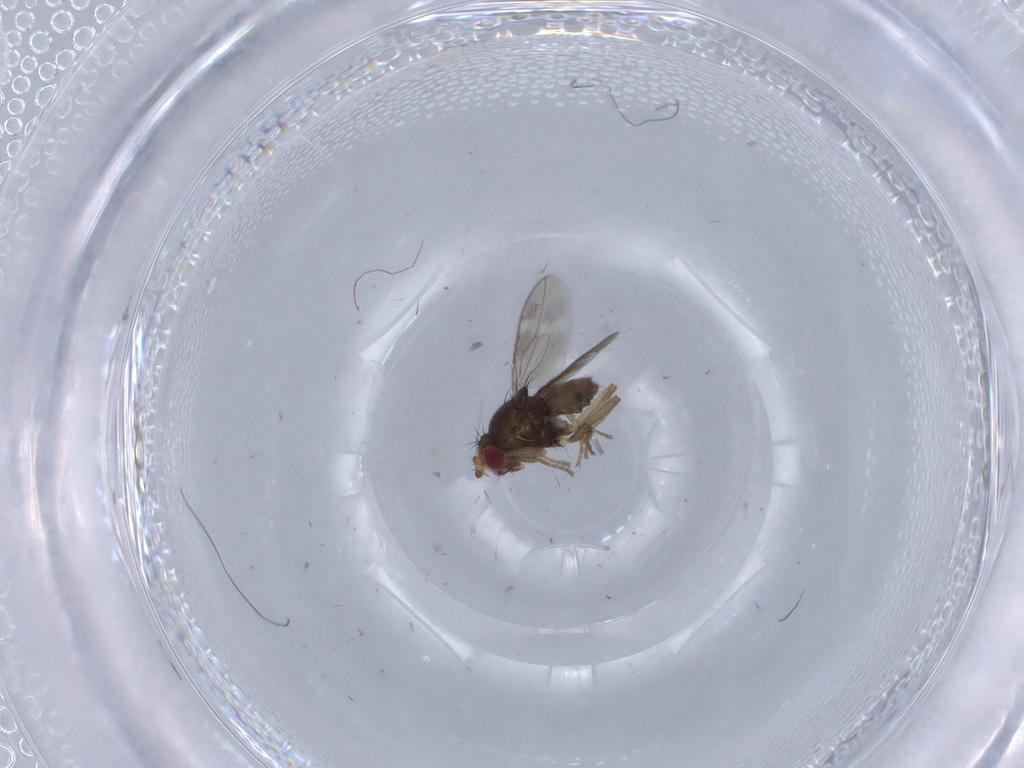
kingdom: Animalia
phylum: Arthropoda
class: Insecta
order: Diptera
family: Sphaeroceridae
